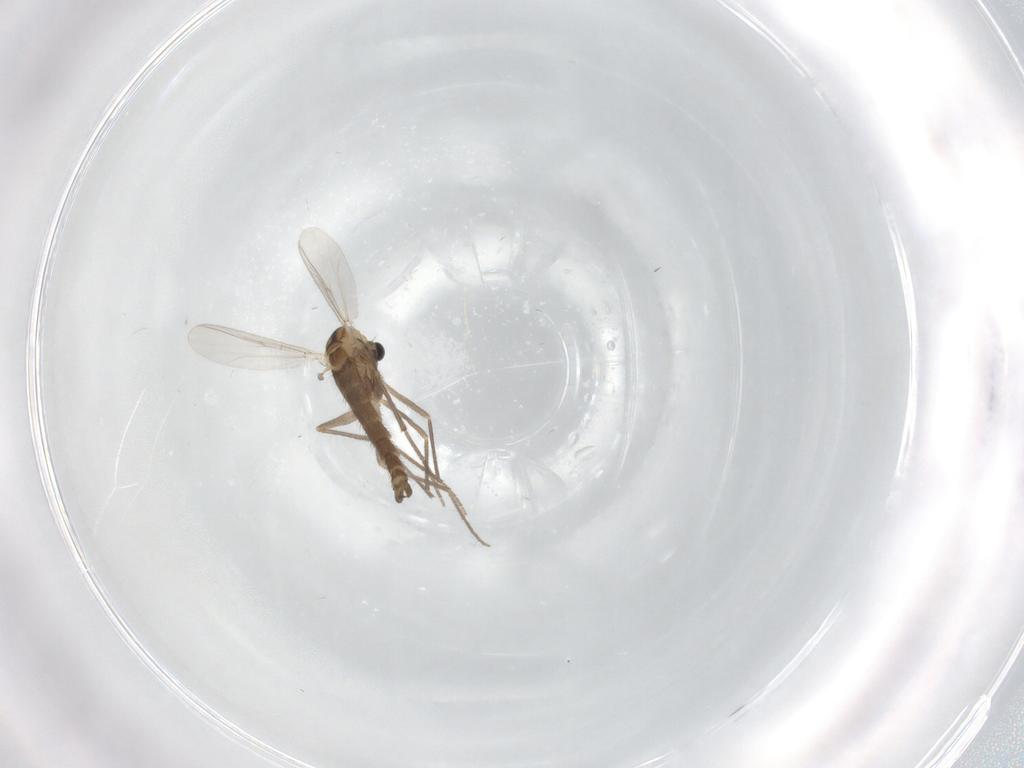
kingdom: Animalia
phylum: Arthropoda
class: Insecta
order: Diptera
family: Chironomidae
